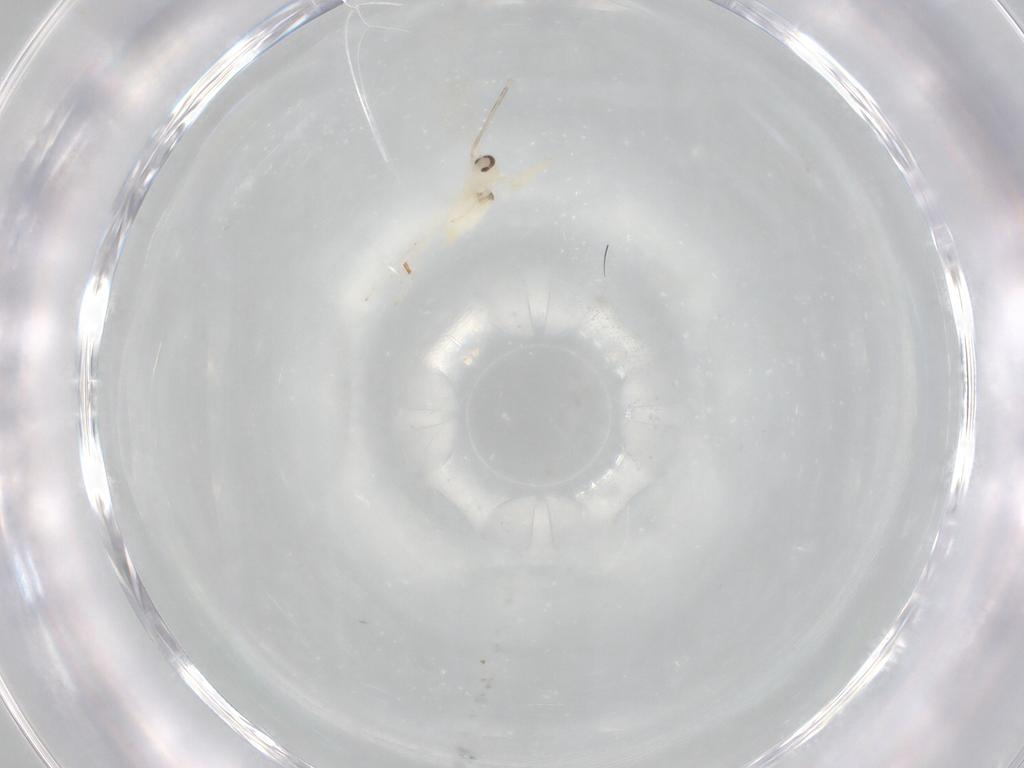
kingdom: Animalia
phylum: Arthropoda
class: Insecta
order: Diptera
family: Cecidomyiidae
